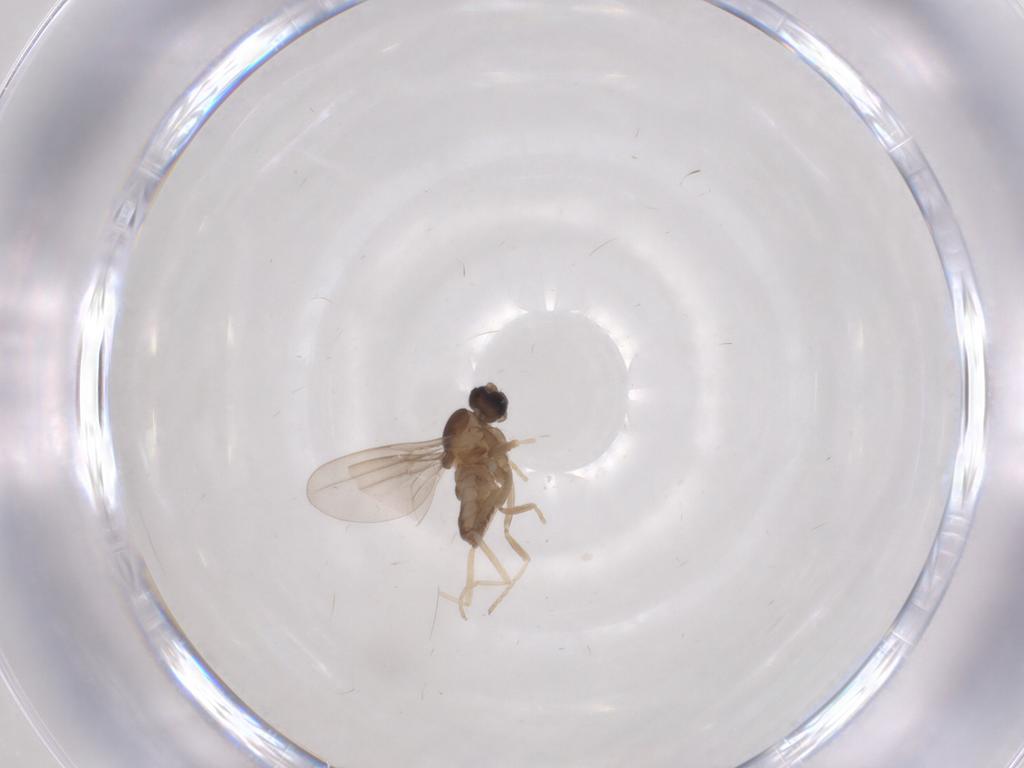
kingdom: Animalia
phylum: Arthropoda
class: Insecta
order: Diptera
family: Cecidomyiidae
